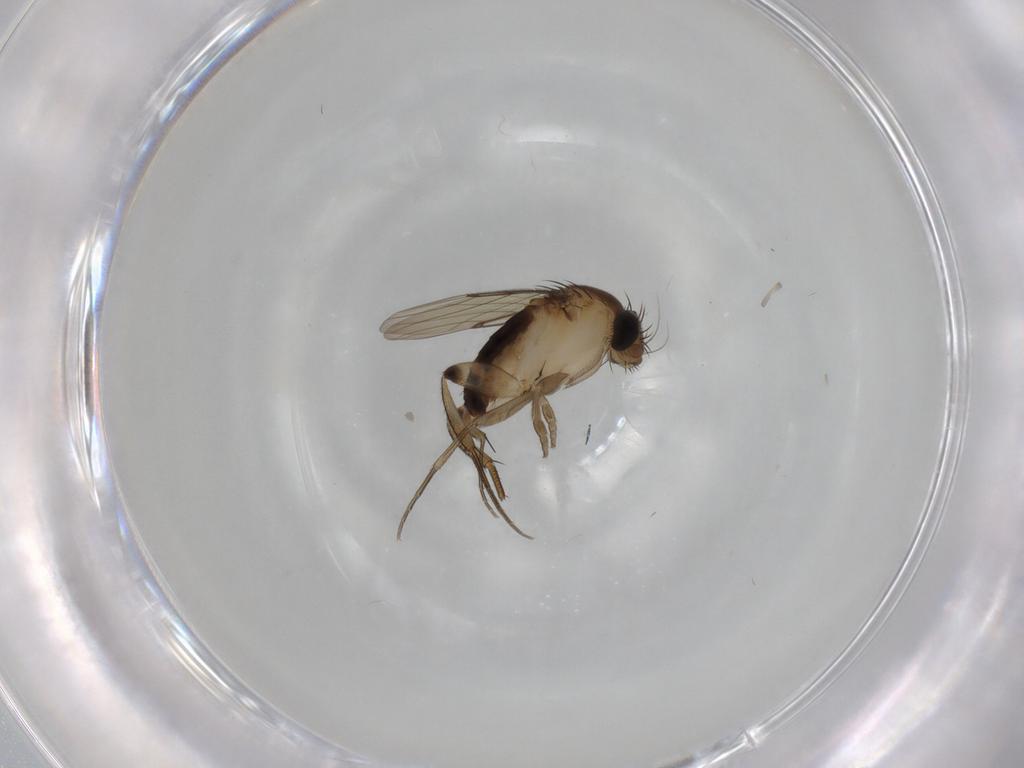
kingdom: Animalia
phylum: Arthropoda
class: Insecta
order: Diptera
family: Phoridae
